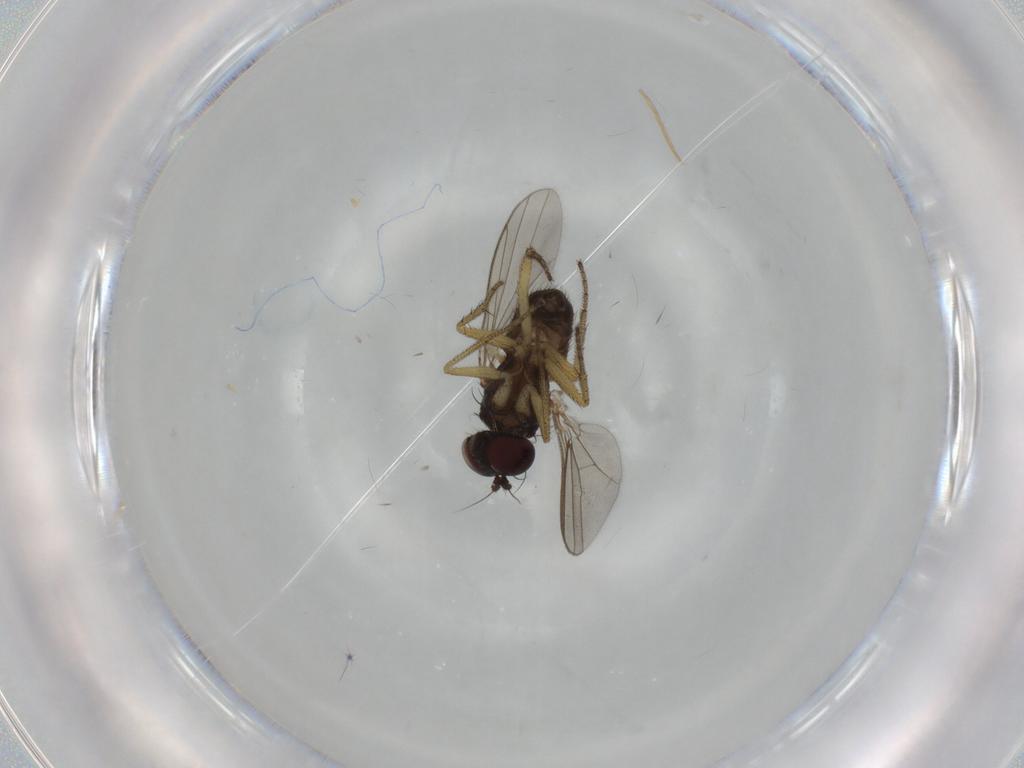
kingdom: Animalia
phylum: Arthropoda
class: Insecta
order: Diptera
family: Dolichopodidae
